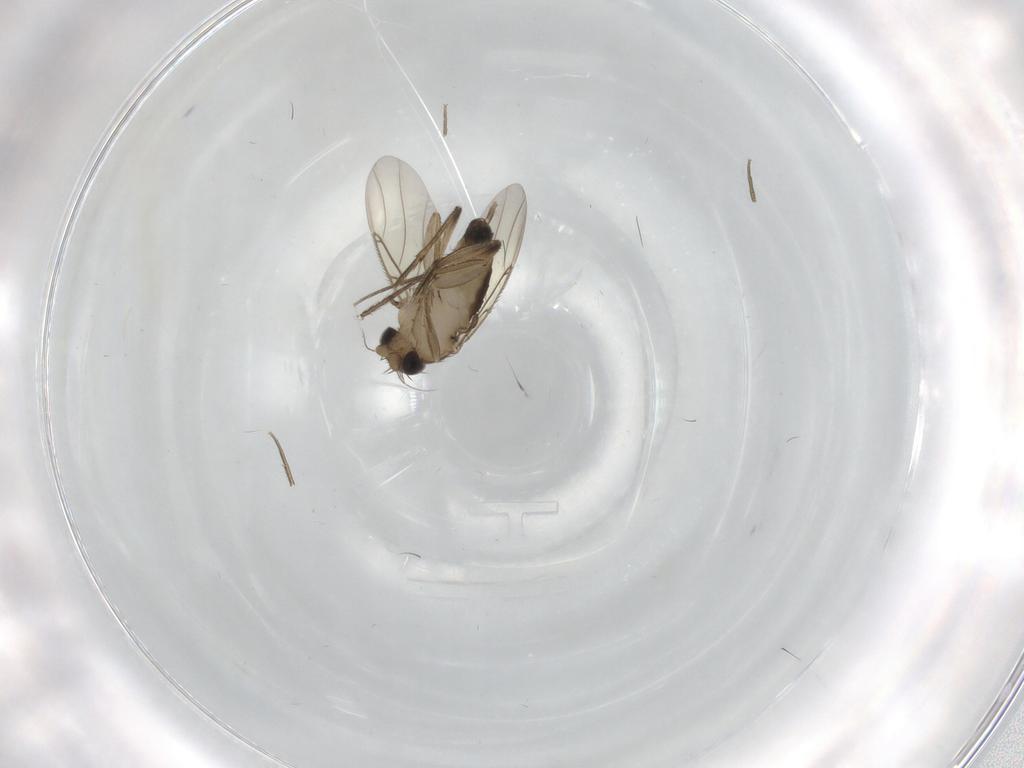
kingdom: Animalia
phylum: Arthropoda
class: Insecta
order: Diptera
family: Phoridae
